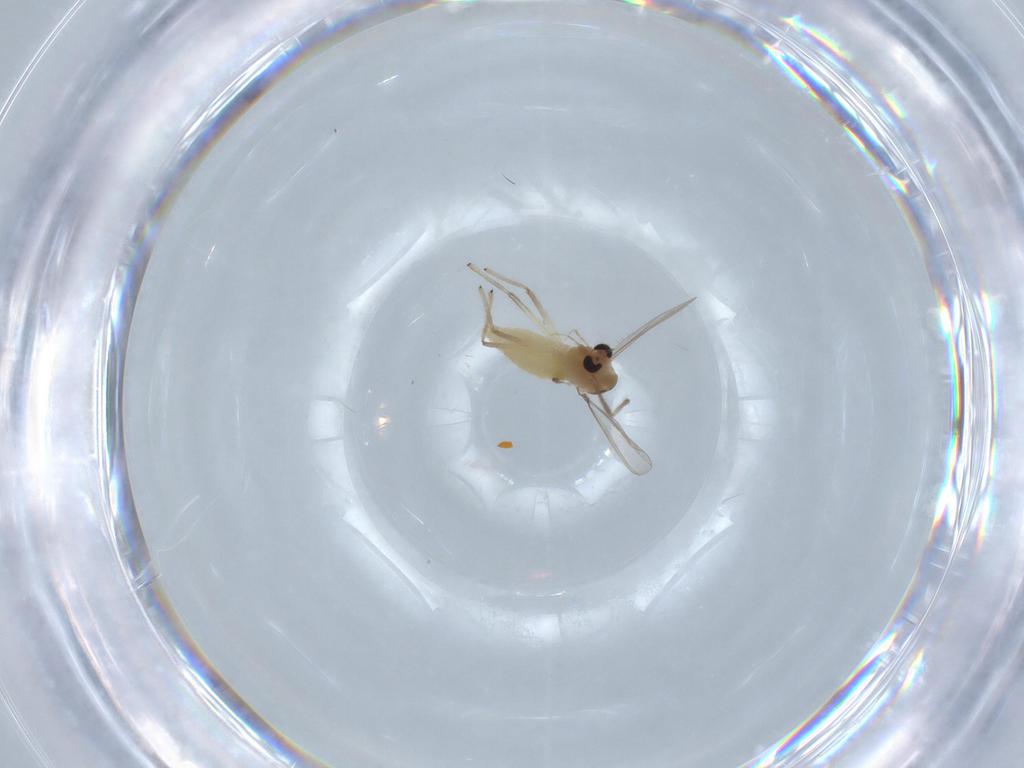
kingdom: Animalia
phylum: Arthropoda
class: Insecta
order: Diptera
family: Chironomidae
